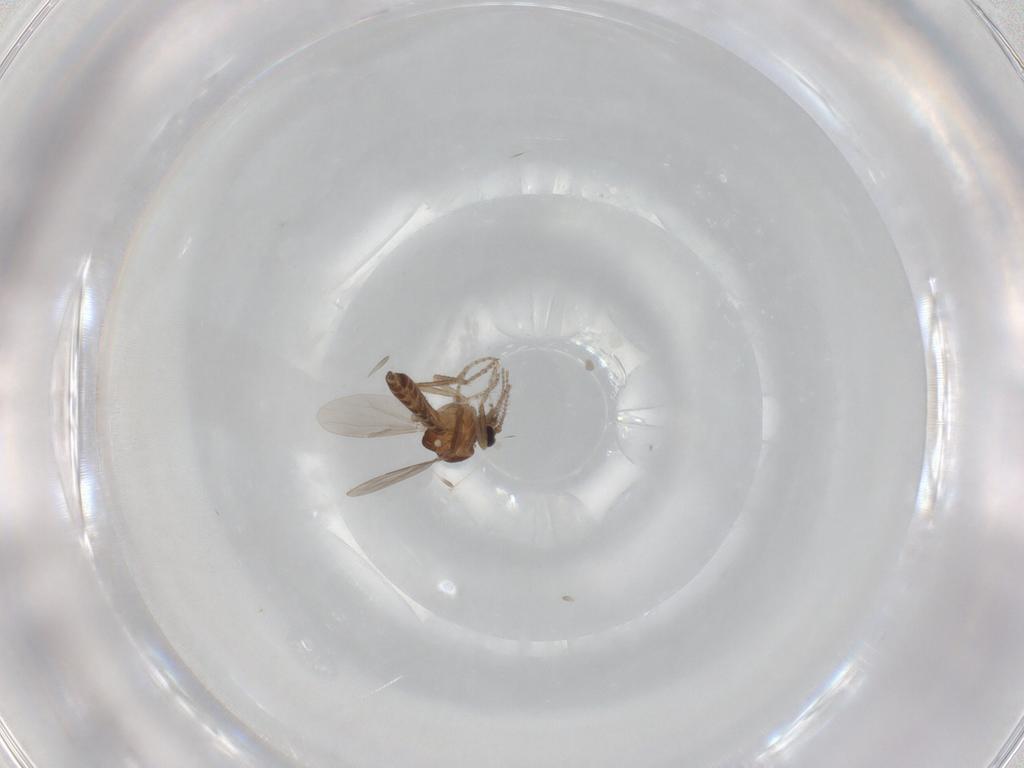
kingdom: Animalia
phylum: Arthropoda
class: Insecta
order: Diptera
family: Ceratopogonidae
